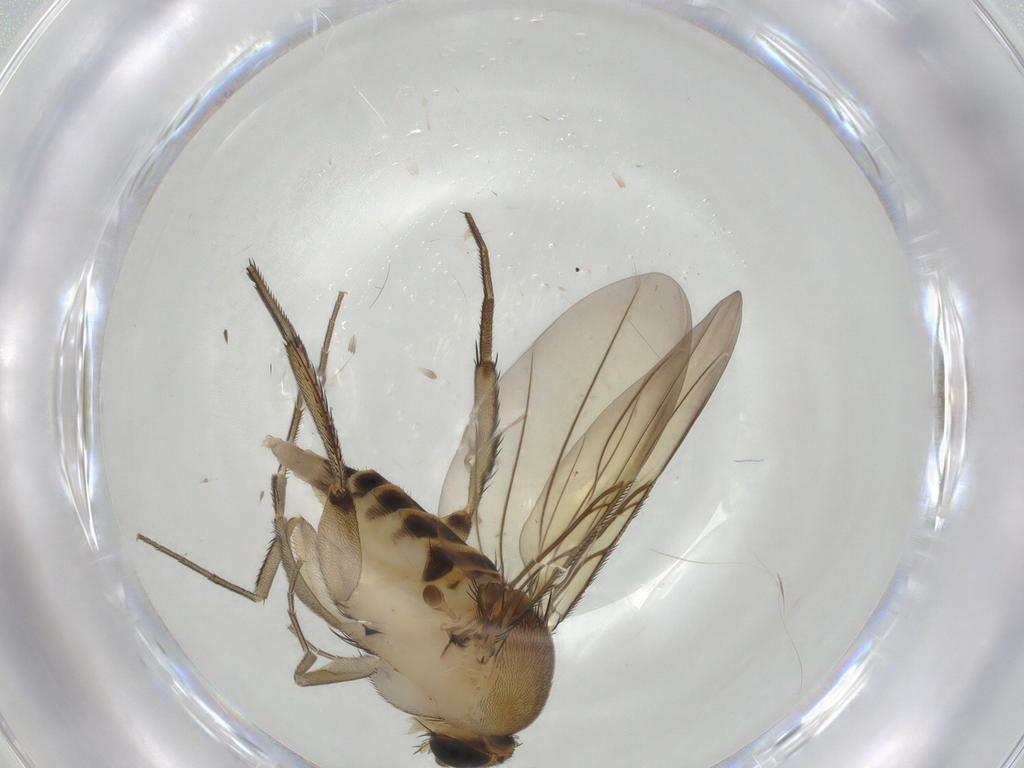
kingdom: Animalia
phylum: Arthropoda
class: Insecta
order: Diptera
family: Phoridae
